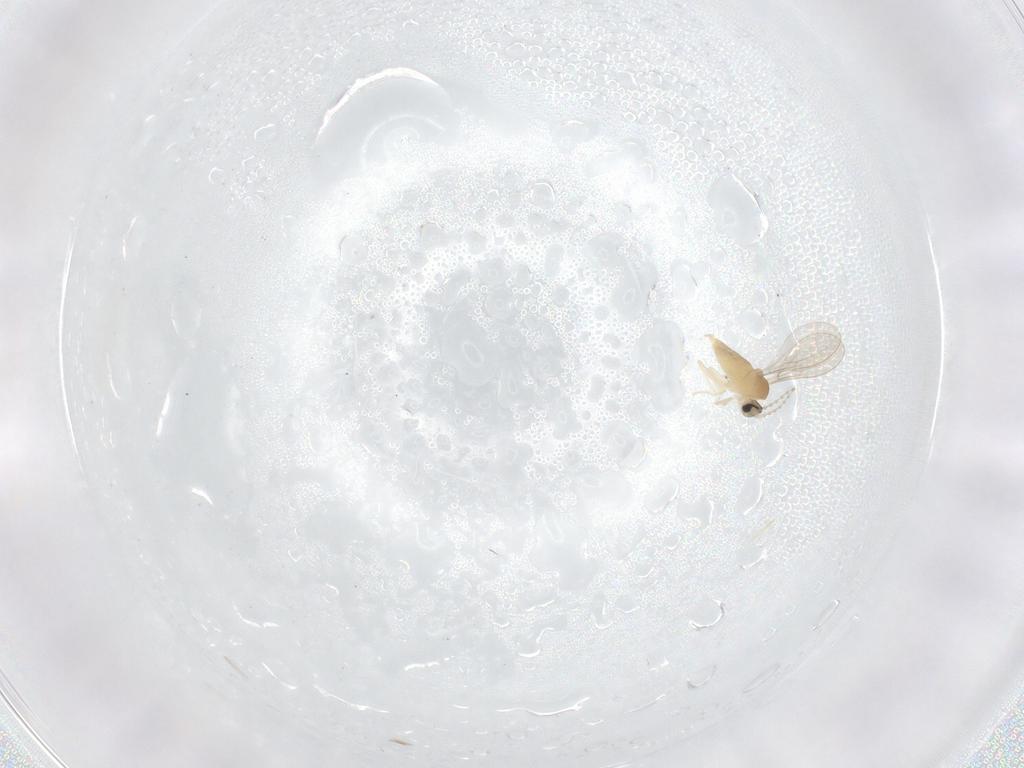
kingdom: Animalia
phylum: Arthropoda
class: Insecta
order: Diptera
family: Cecidomyiidae
